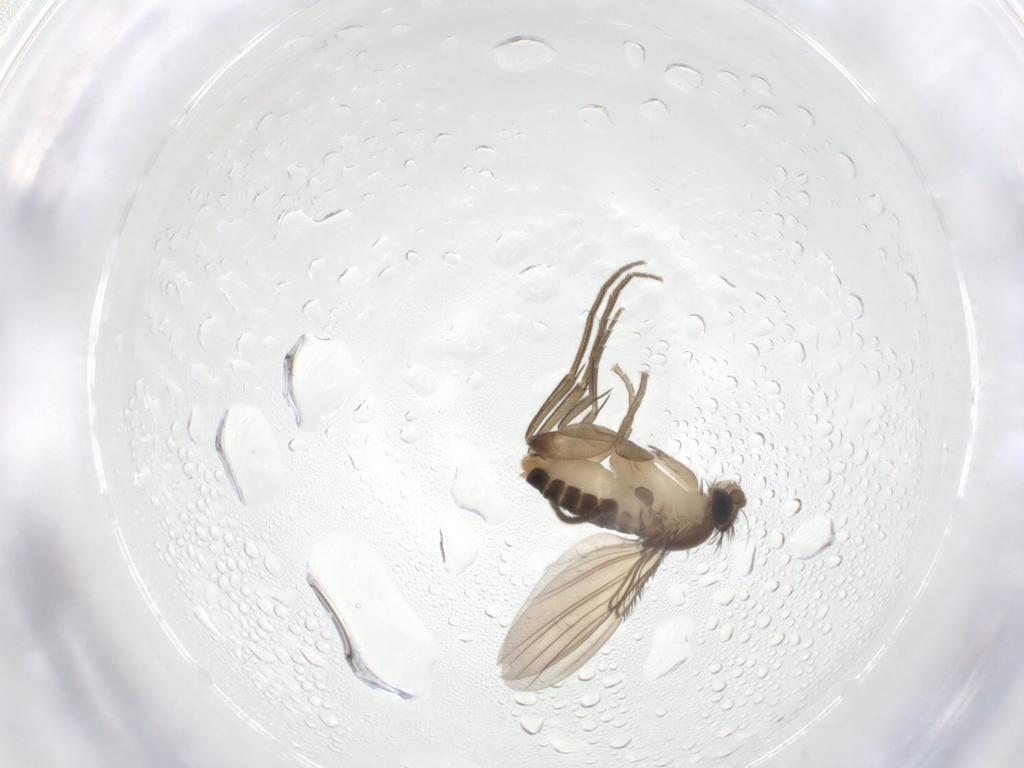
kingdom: Animalia
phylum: Arthropoda
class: Insecta
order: Diptera
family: Phoridae
